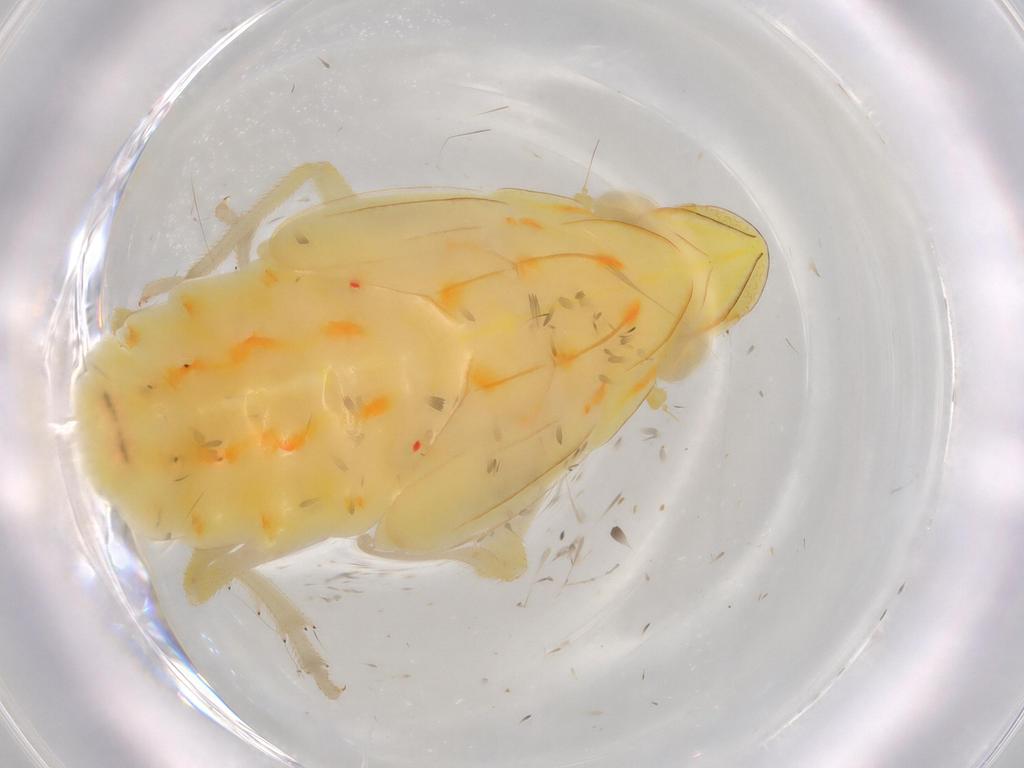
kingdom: Animalia
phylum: Arthropoda
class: Insecta
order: Hemiptera
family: Tropiduchidae
